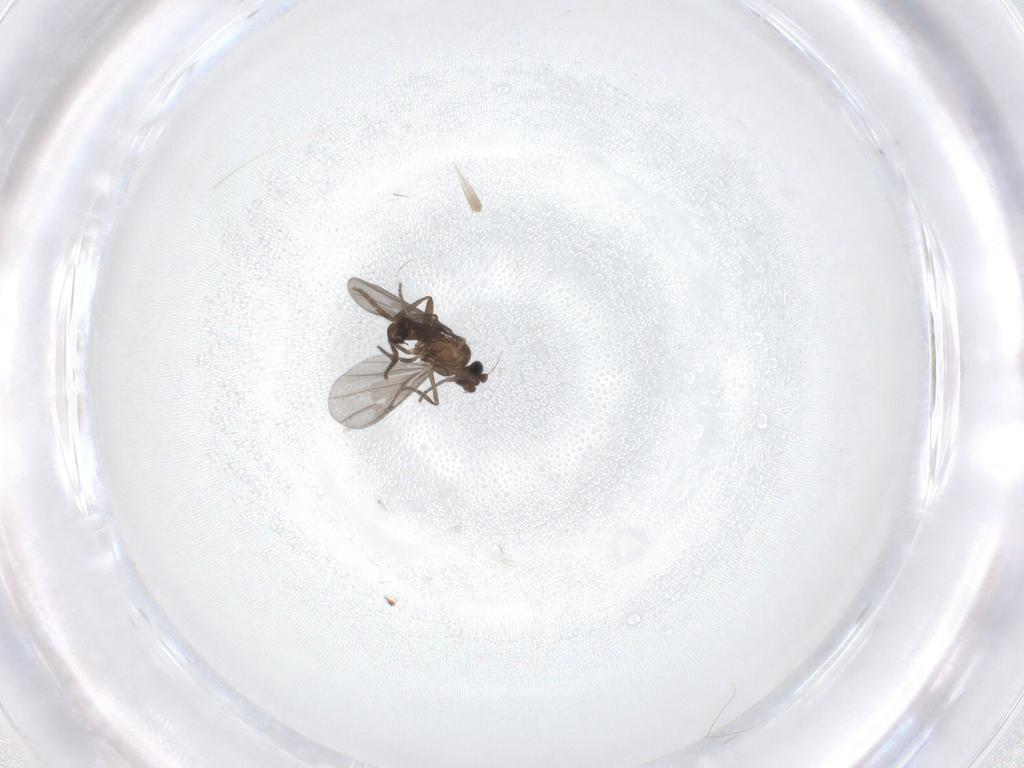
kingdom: Animalia
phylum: Arthropoda
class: Insecta
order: Diptera
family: Phoridae
